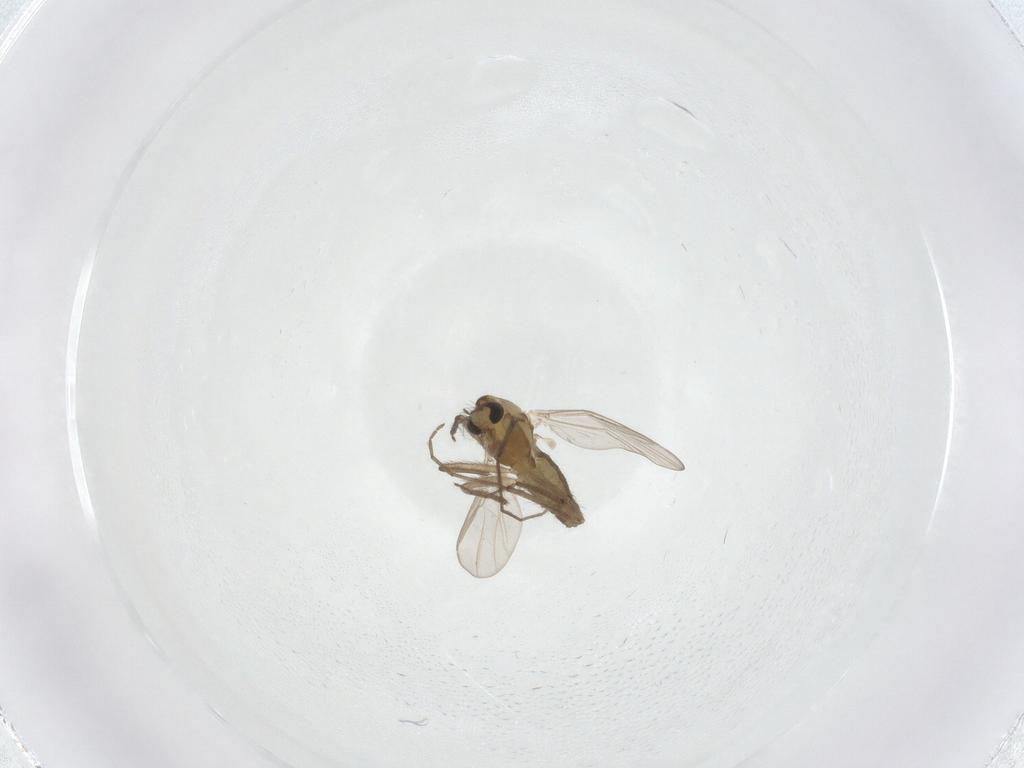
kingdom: Animalia
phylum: Arthropoda
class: Insecta
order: Diptera
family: Chironomidae
